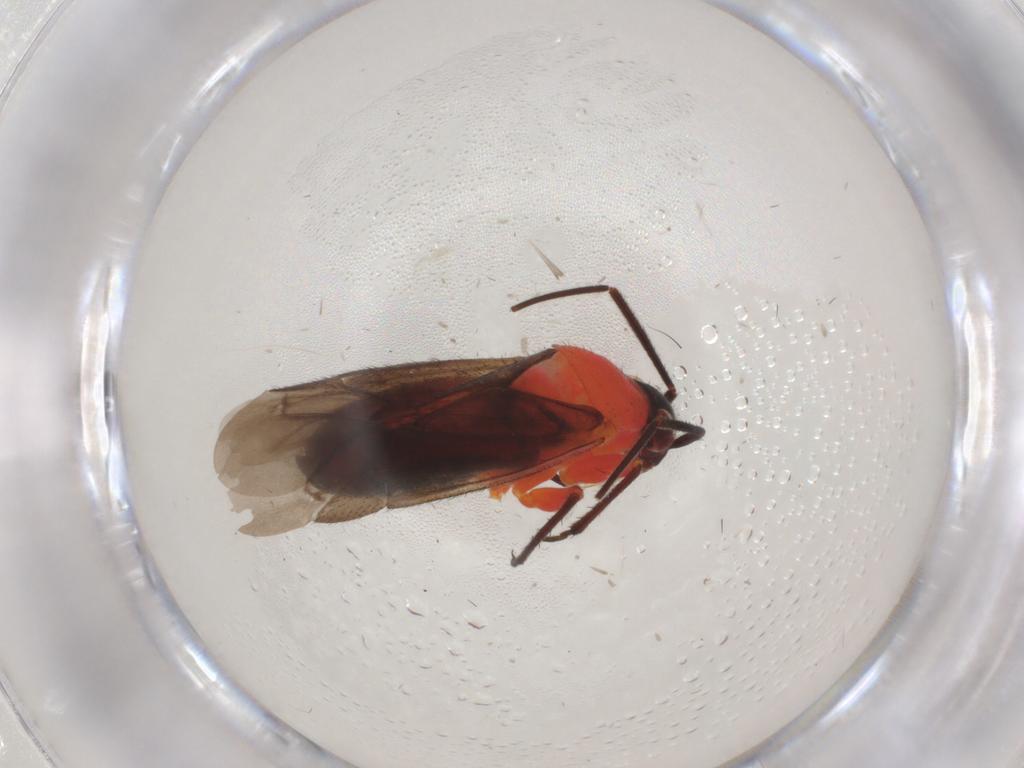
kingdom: Animalia
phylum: Arthropoda
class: Insecta
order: Hemiptera
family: Miridae
